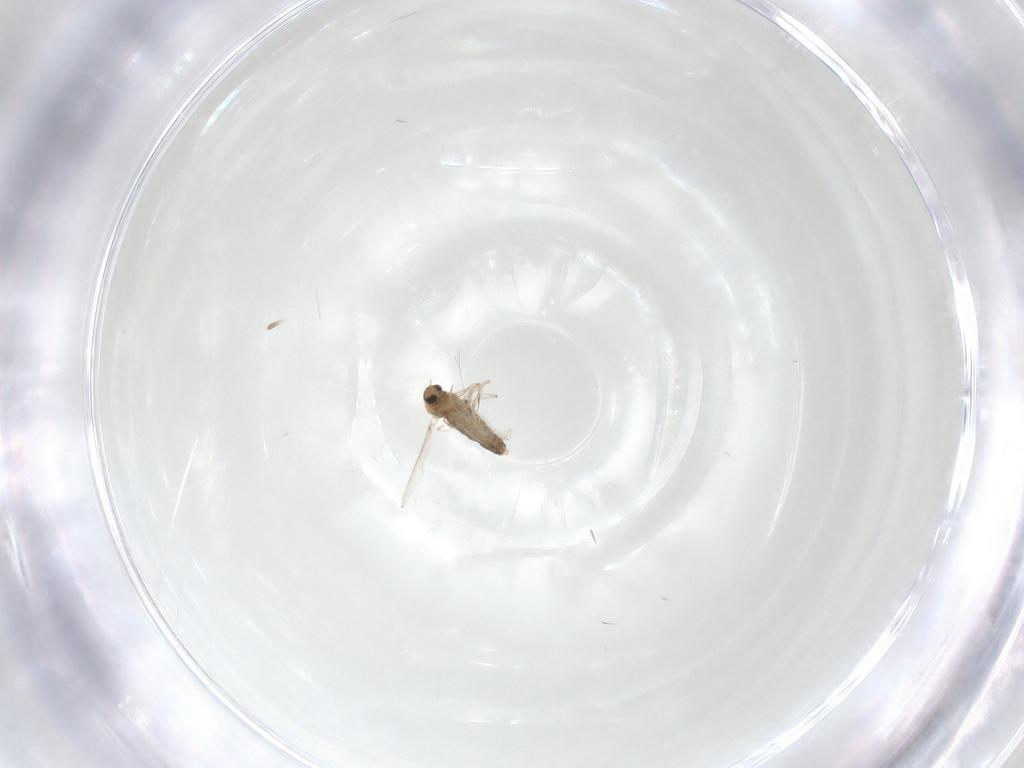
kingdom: Animalia
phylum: Arthropoda
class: Insecta
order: Diptera
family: Chironomidae
